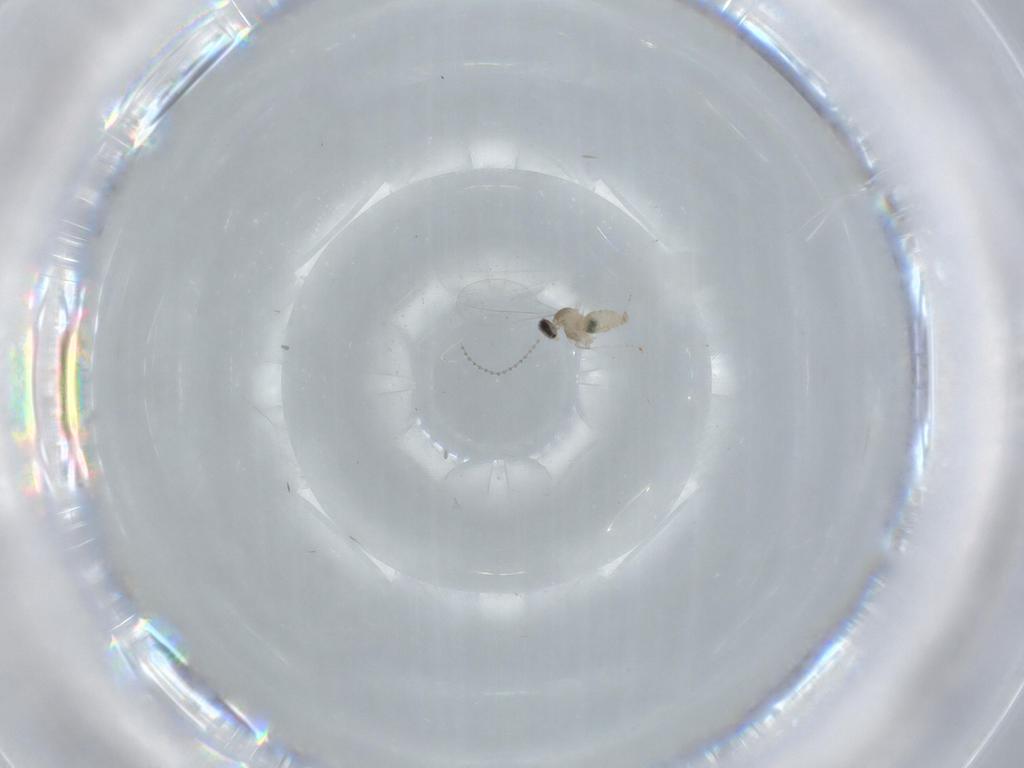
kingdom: Animalia
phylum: Arthropoda
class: Insecta
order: Diptera
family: Cecidomyiidae
